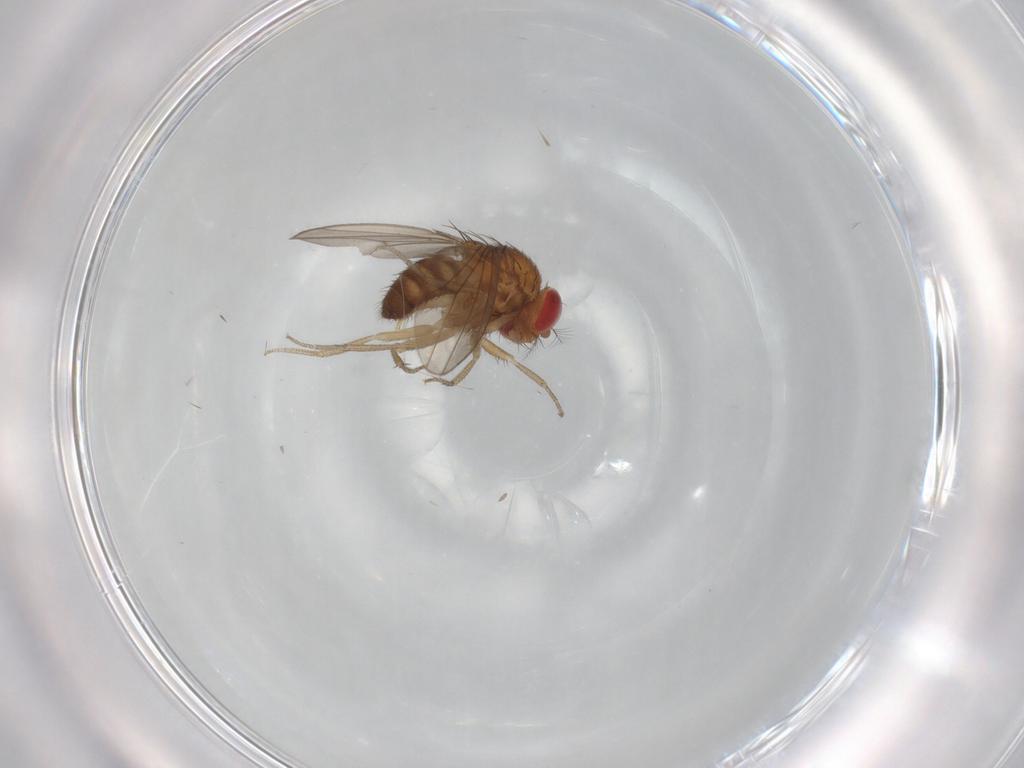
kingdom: Animalia
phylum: Arthropoda
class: Insecta
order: Diptera
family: Drosophilidae
